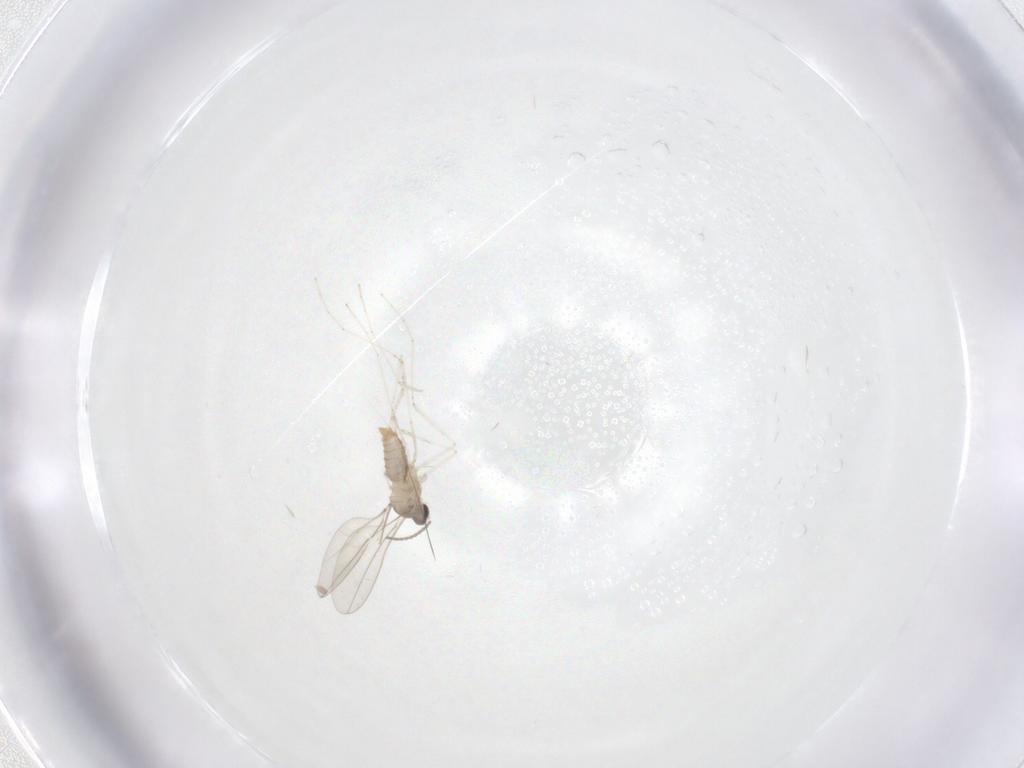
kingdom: Animalia
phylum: Arthropoda
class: Insecta
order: Diptera
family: Cecidomyiidae
